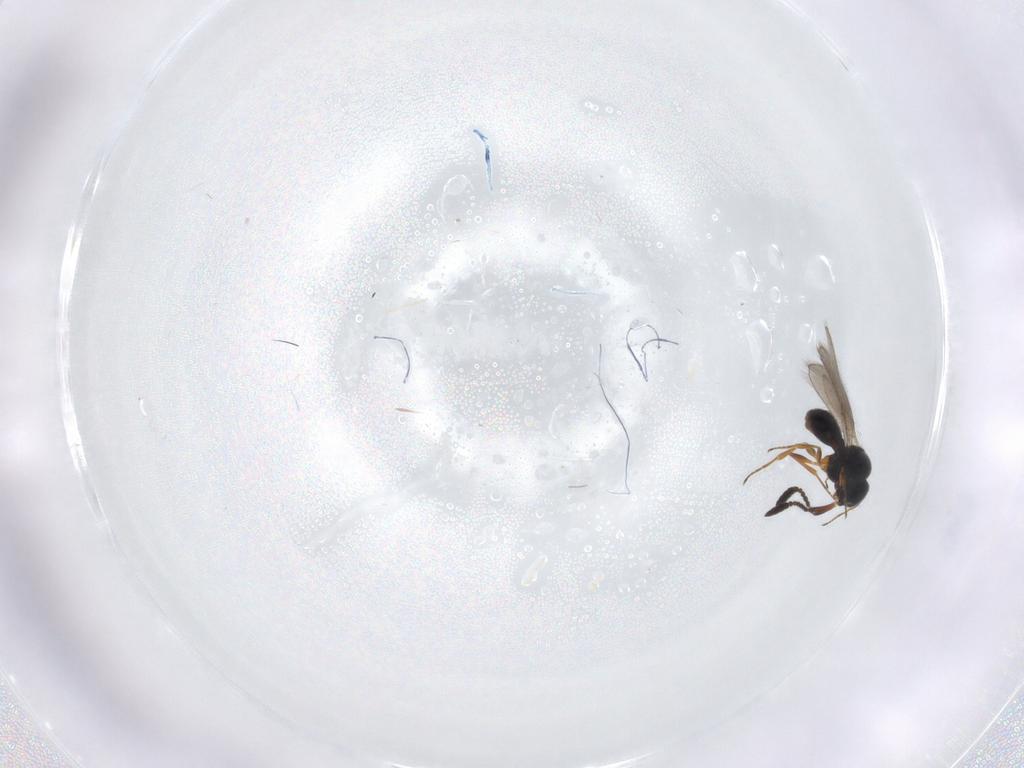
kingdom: Animalia
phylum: Arthropoda
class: Insecta
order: Hymenoptera
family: Scelionidae
